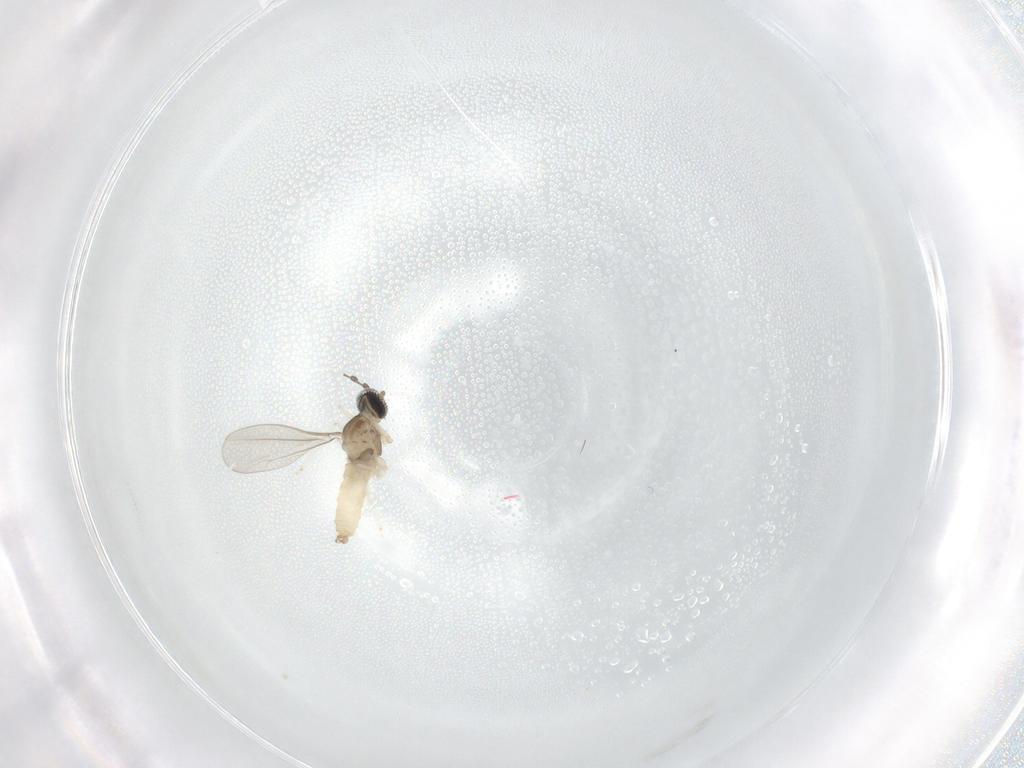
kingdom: Animalia
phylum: Arthropoda
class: Insecta
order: Diptera
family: Cecidomyiidae
